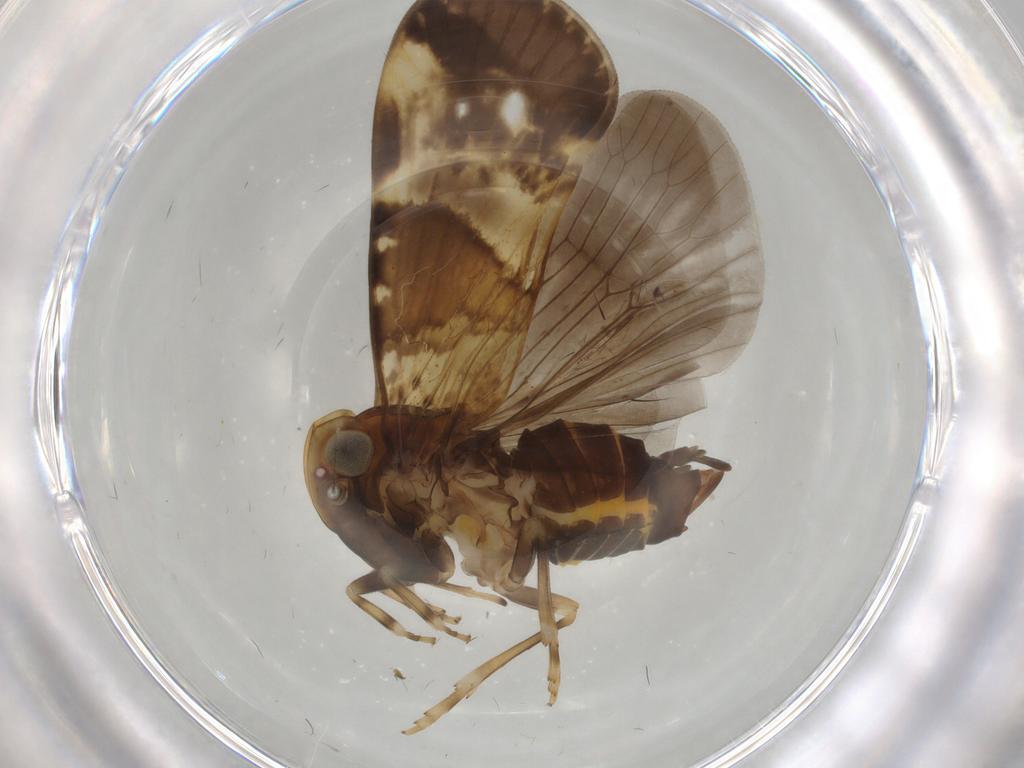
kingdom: Animalia
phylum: Arthropoda
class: Insecta
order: Hemiptera
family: Cixiidae
